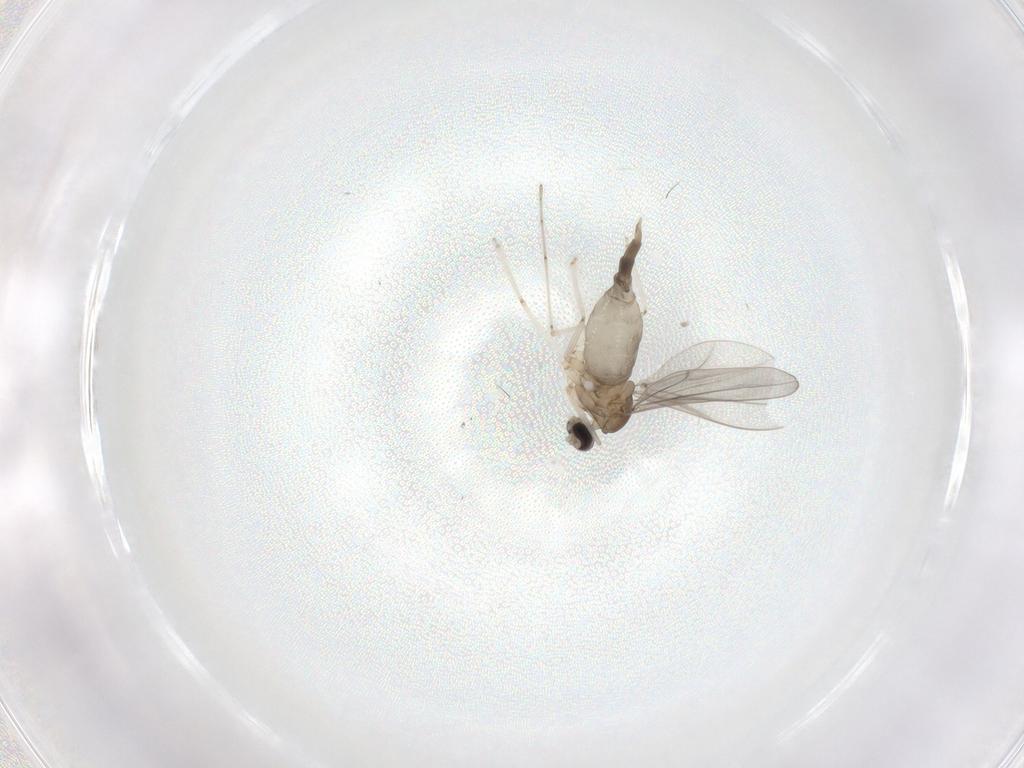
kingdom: Animalia
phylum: Arthropoda
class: Insecta
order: Diptera
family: Cecidomyiidae
